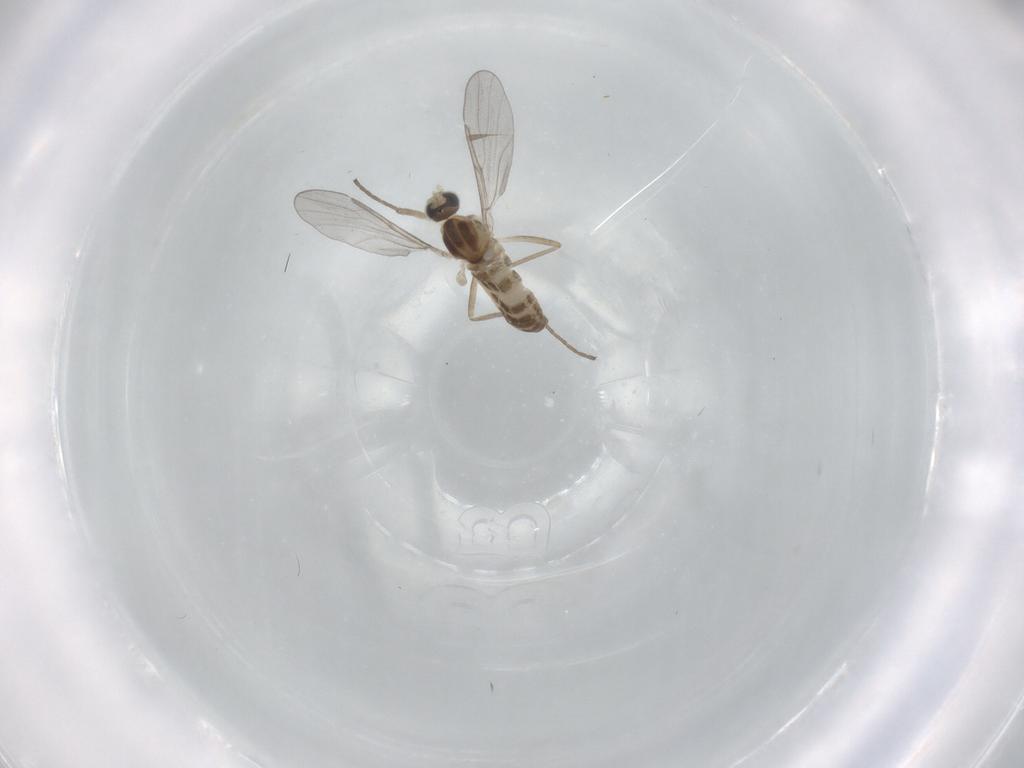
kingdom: Animalia
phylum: Arthropoda
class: Insecta
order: Diptera
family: Cecidomyiidae
